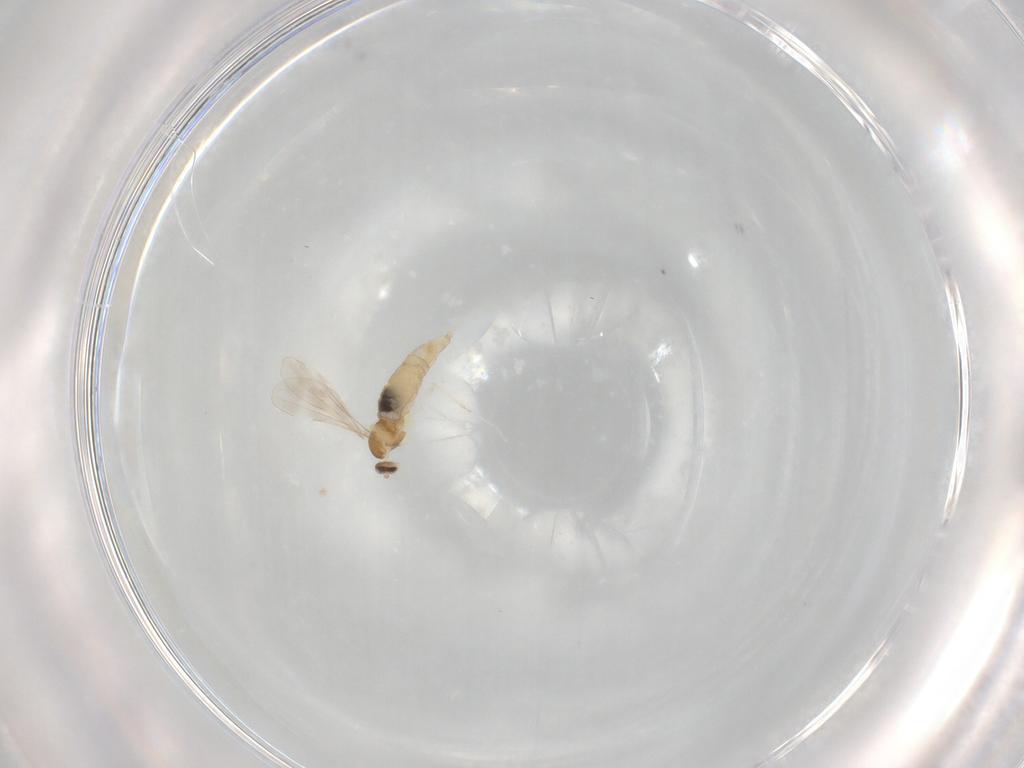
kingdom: Animalia
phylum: Arthropoda
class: Insecta
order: Diptera
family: Cecidomyiidae
